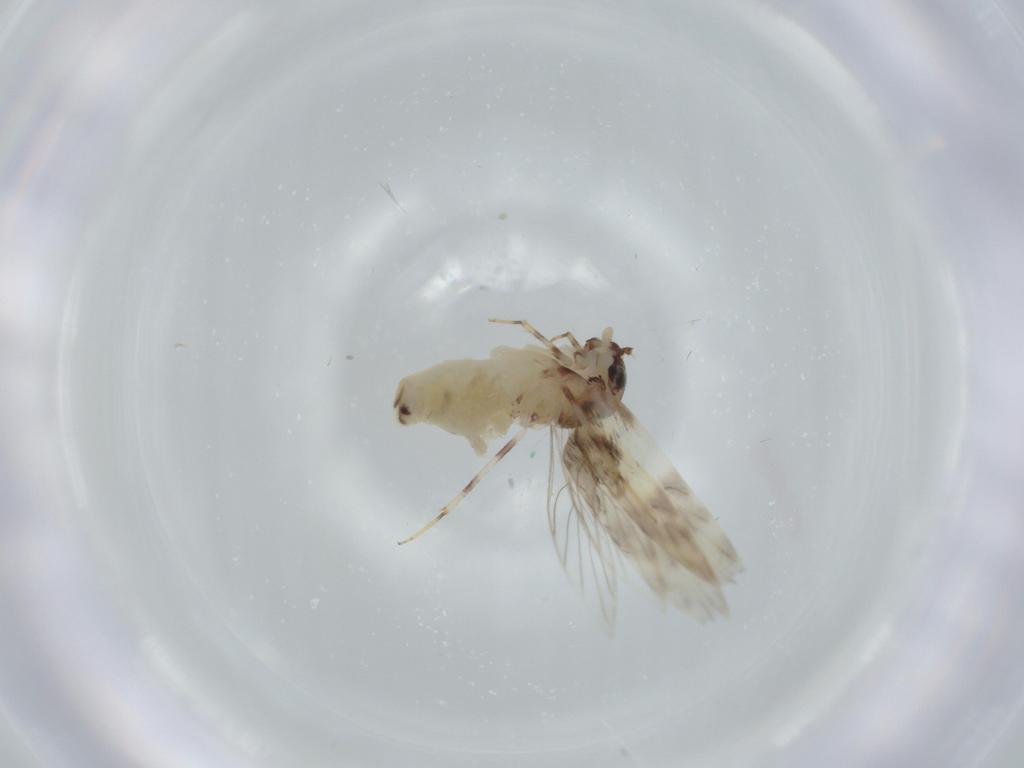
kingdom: Animalia
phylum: Arthropoda
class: Insecta
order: Psocodea
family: Lepidopsocidae
